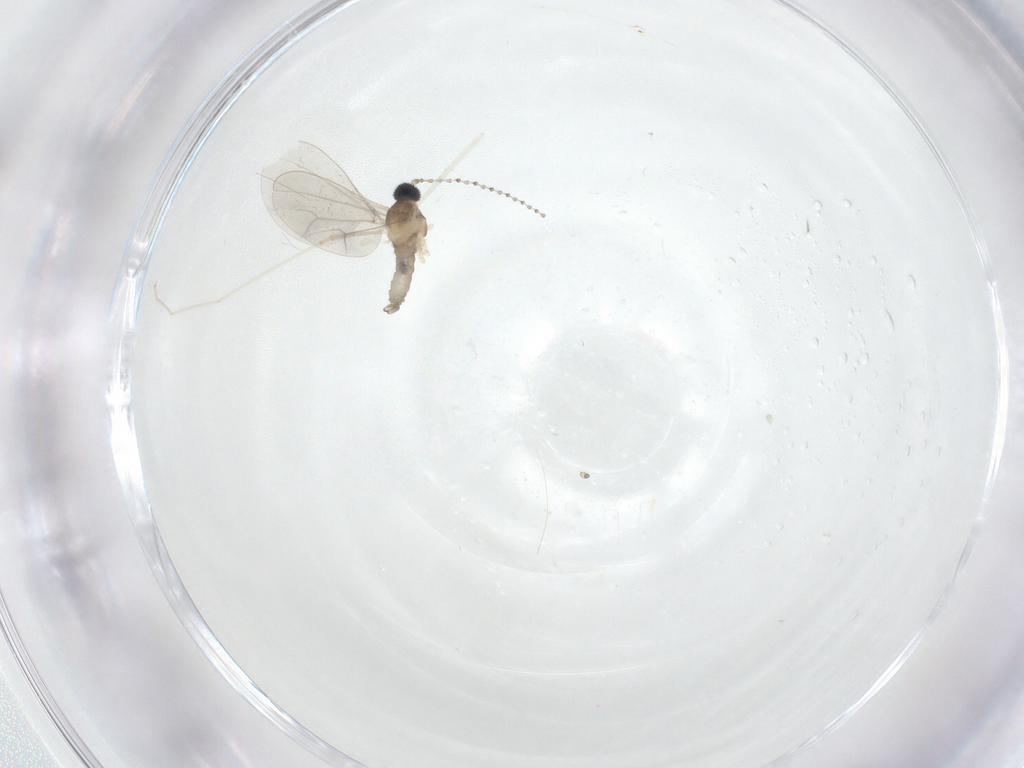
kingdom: Animalia
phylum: Arthropoda
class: Insecta
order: Diptera
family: Cecidomyiidae
